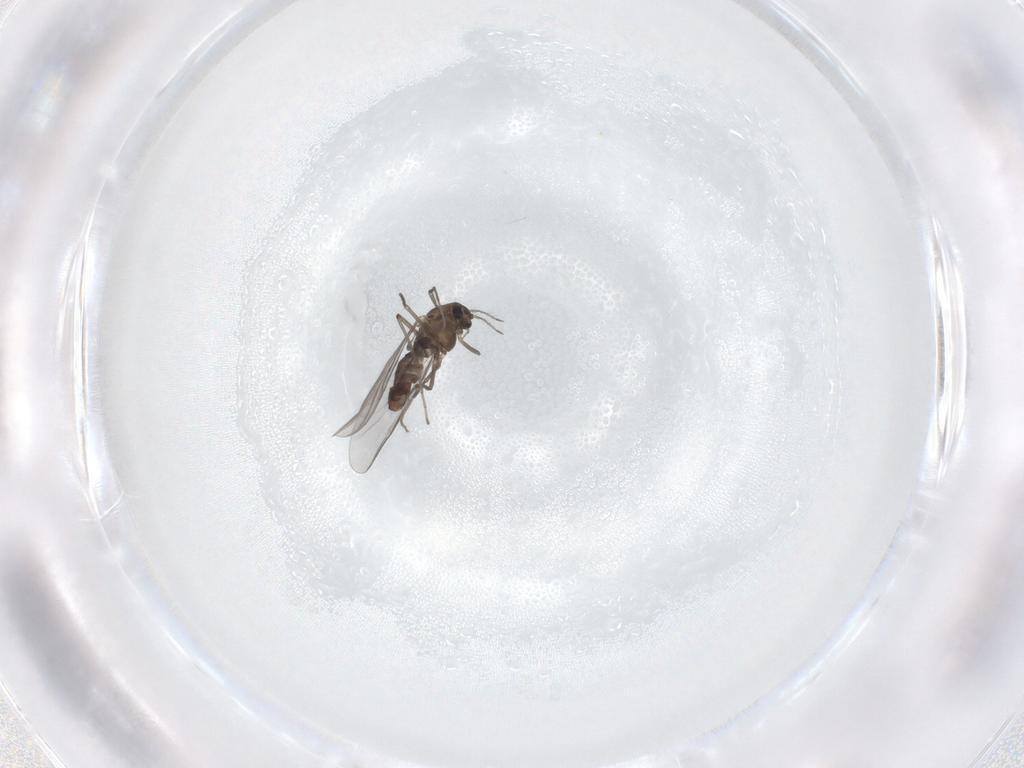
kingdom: Animalia
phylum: Arthropoda
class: Insecta
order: Diptera
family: Chironomidae
